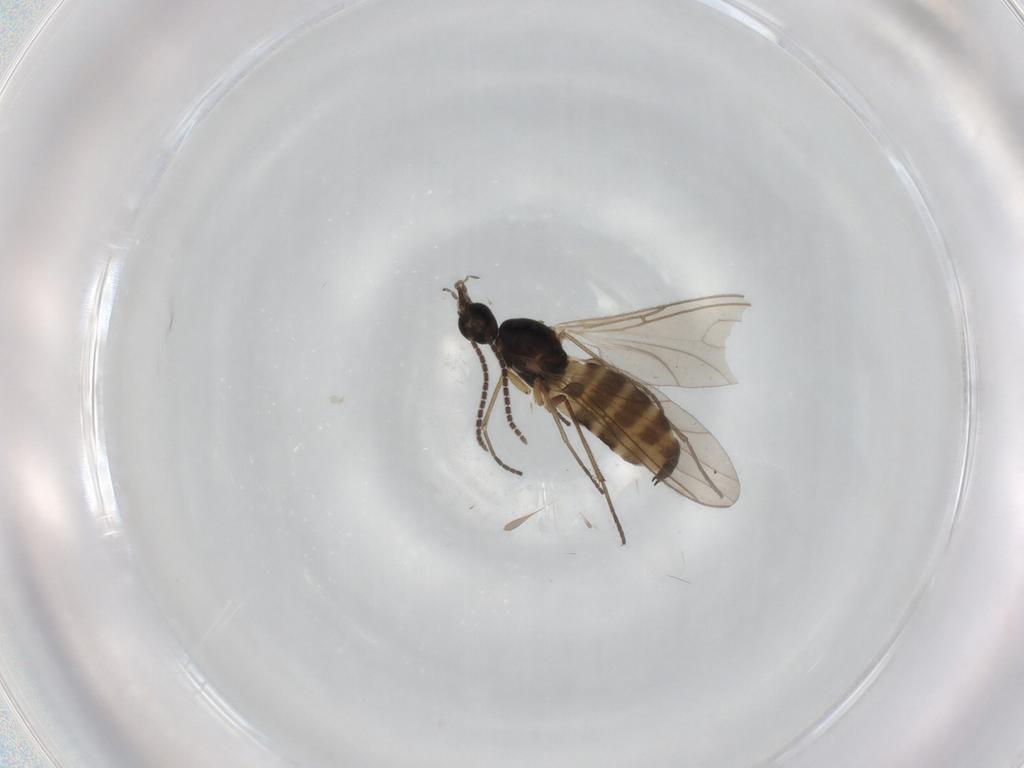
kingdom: Animalia
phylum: Arthropoda
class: Insecta
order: Diptera
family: Sciaridae
